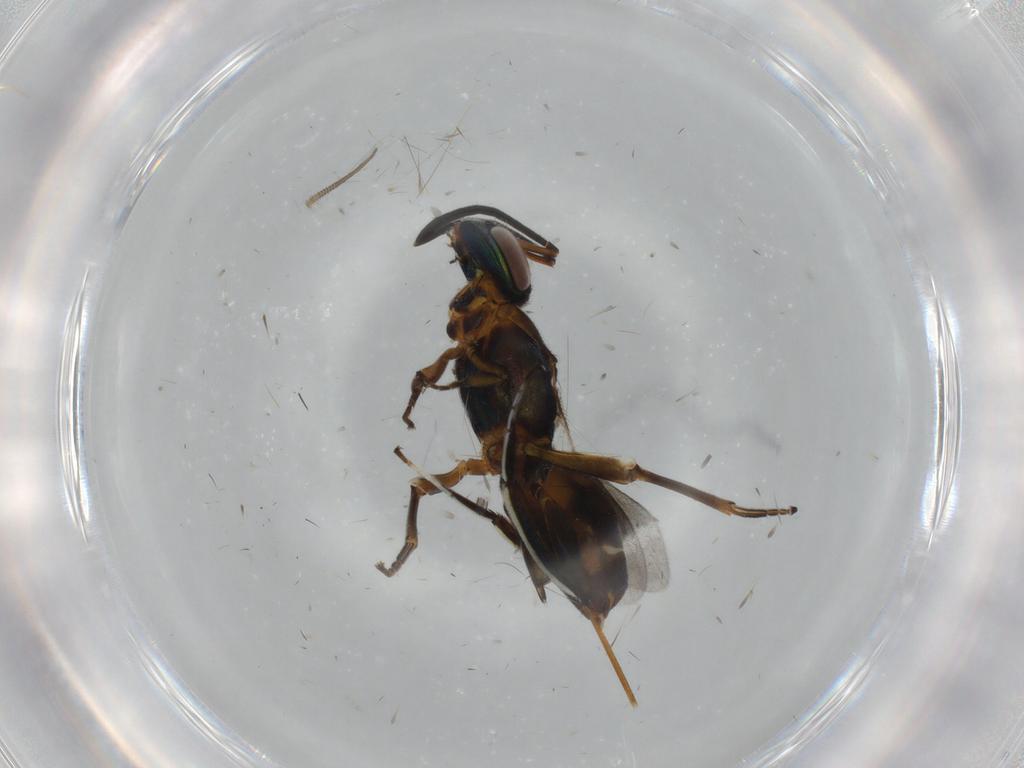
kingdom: Animalia
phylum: Arthropoda
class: Insecta
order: Hymenoptera
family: Eupelmidae
